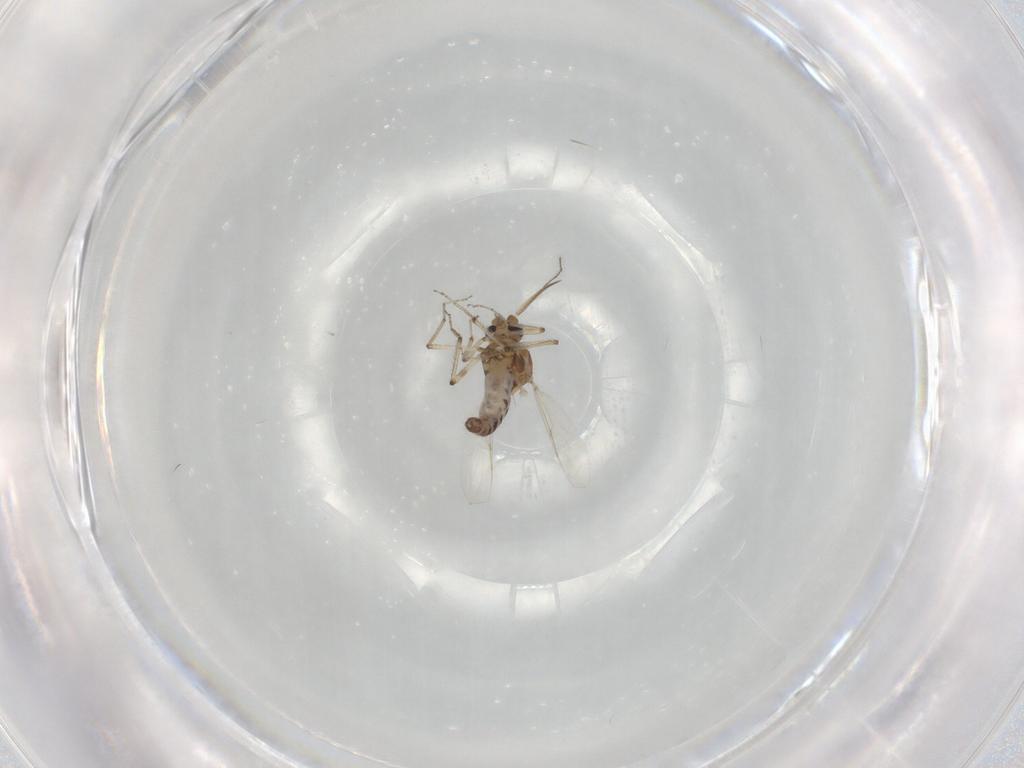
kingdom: Animalia
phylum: Arthropoda
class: Insecta
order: Diptera
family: Ceratopogonidae
